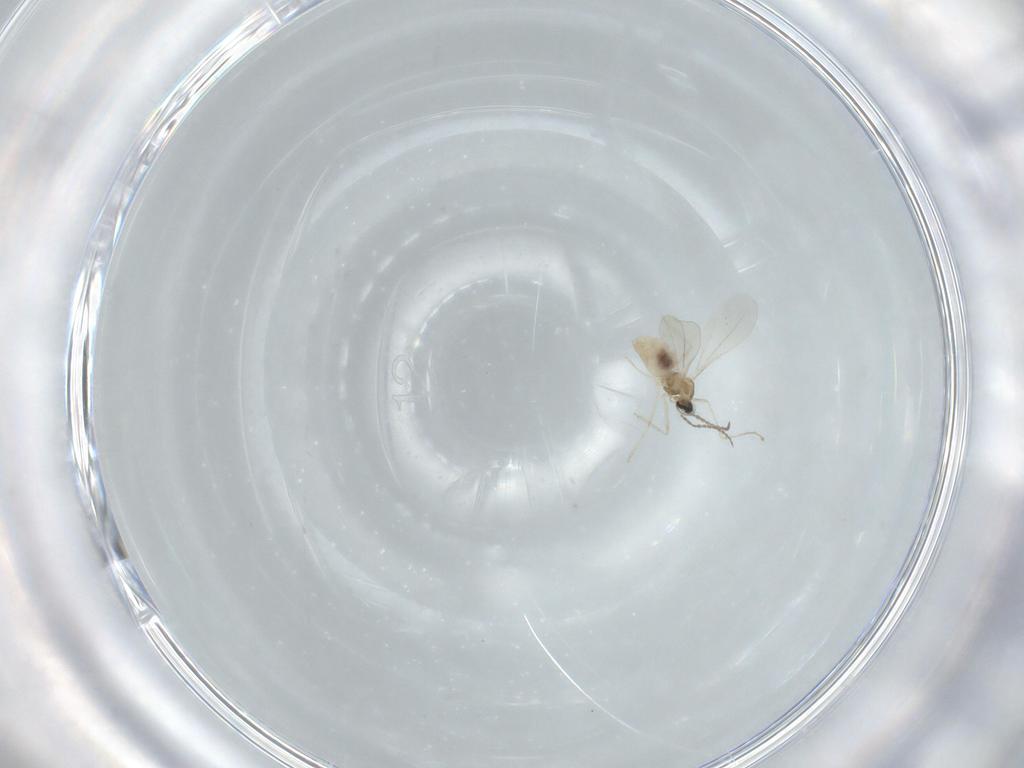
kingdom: Animalia
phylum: Arthropoda
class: Insecta
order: Diptera
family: Cecidomyiidae
